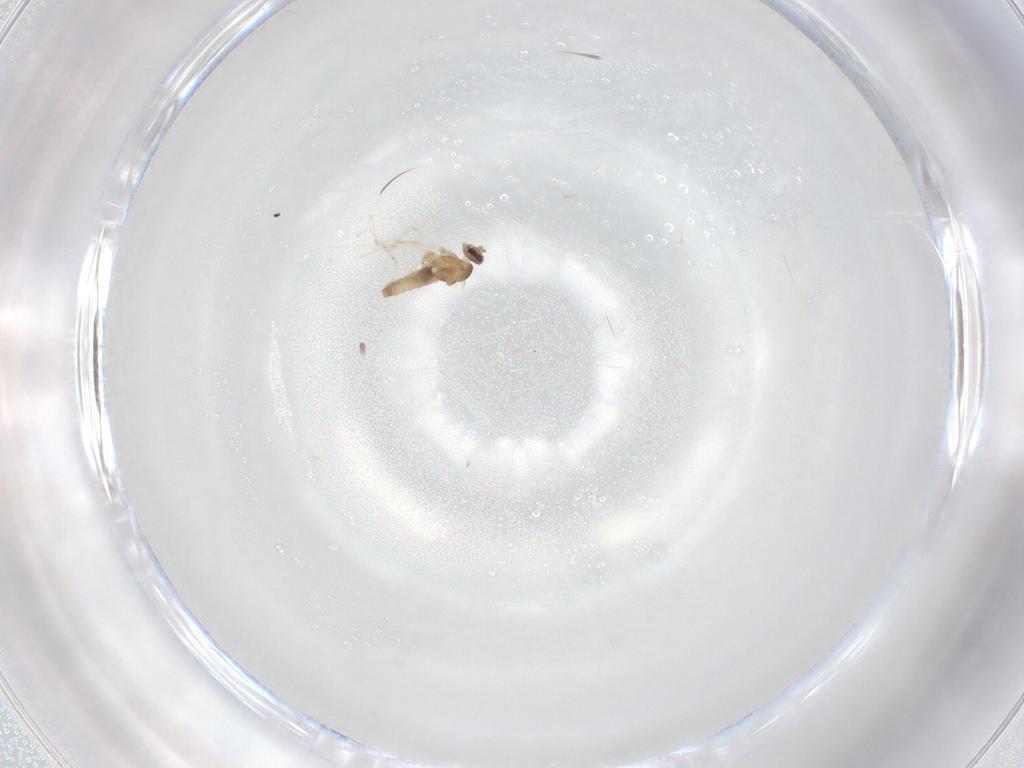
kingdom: Animalia
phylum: Arthropoda
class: Insecta
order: Diptera
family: Cecidomyiidae
